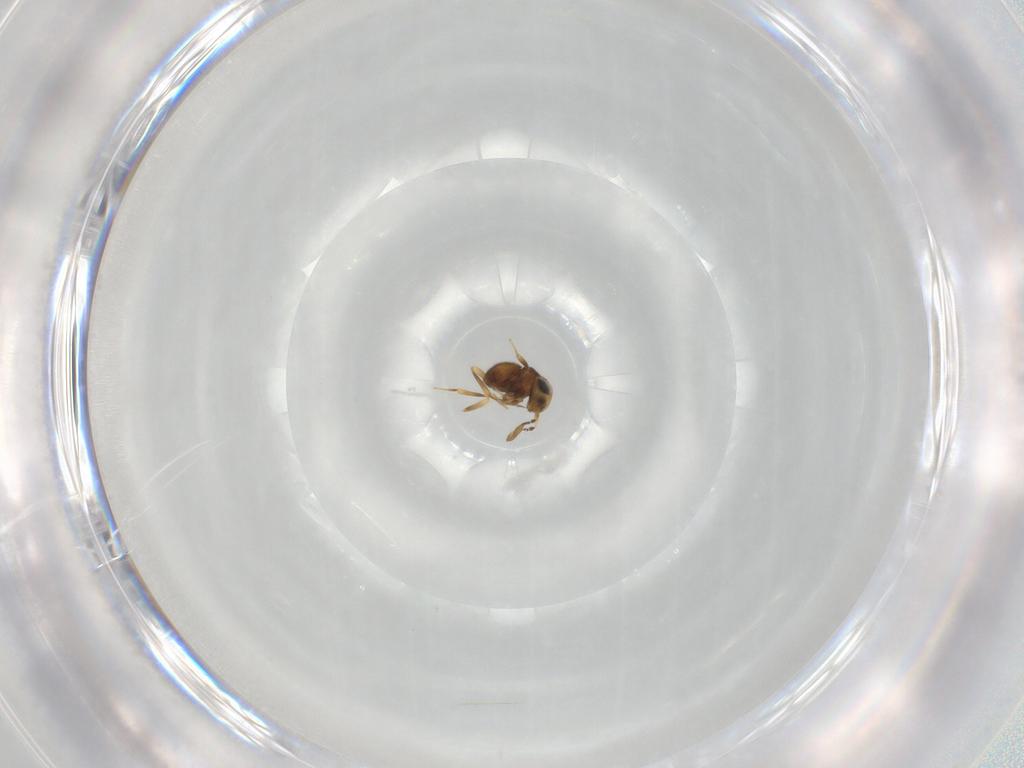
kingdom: Animalia
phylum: Arthropoda
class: Insecta
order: Hymenoptera
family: Scelionidae
